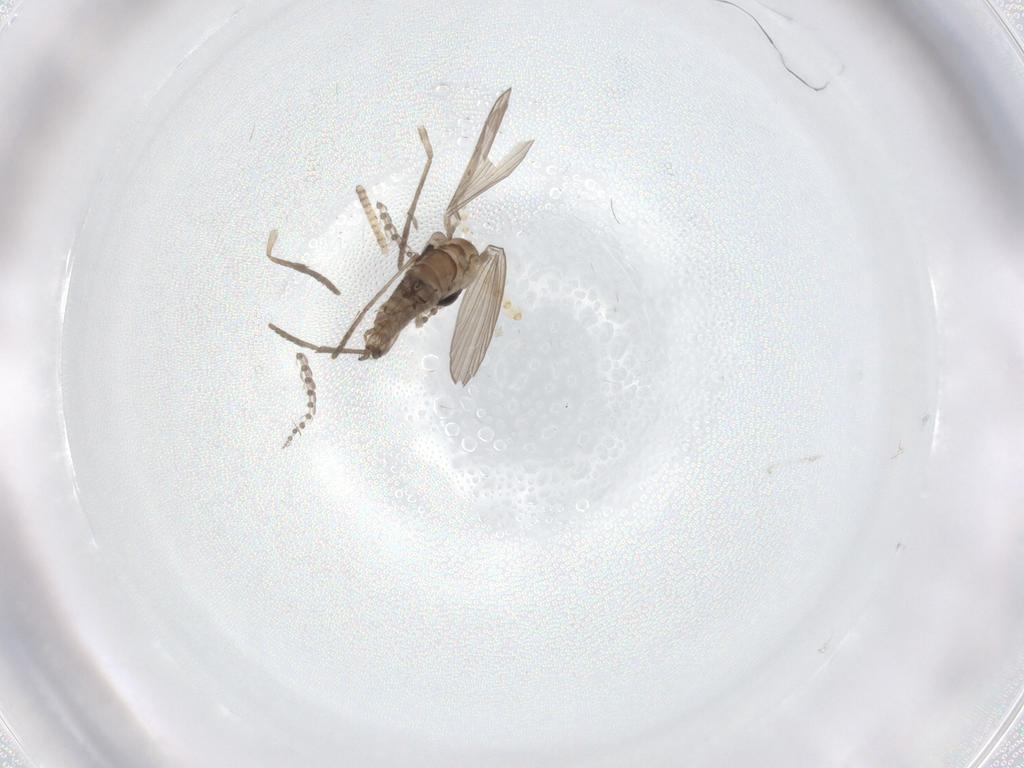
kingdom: Animalia
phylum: Arthropoda
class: Insecta
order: Diptera
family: Psychodidae
